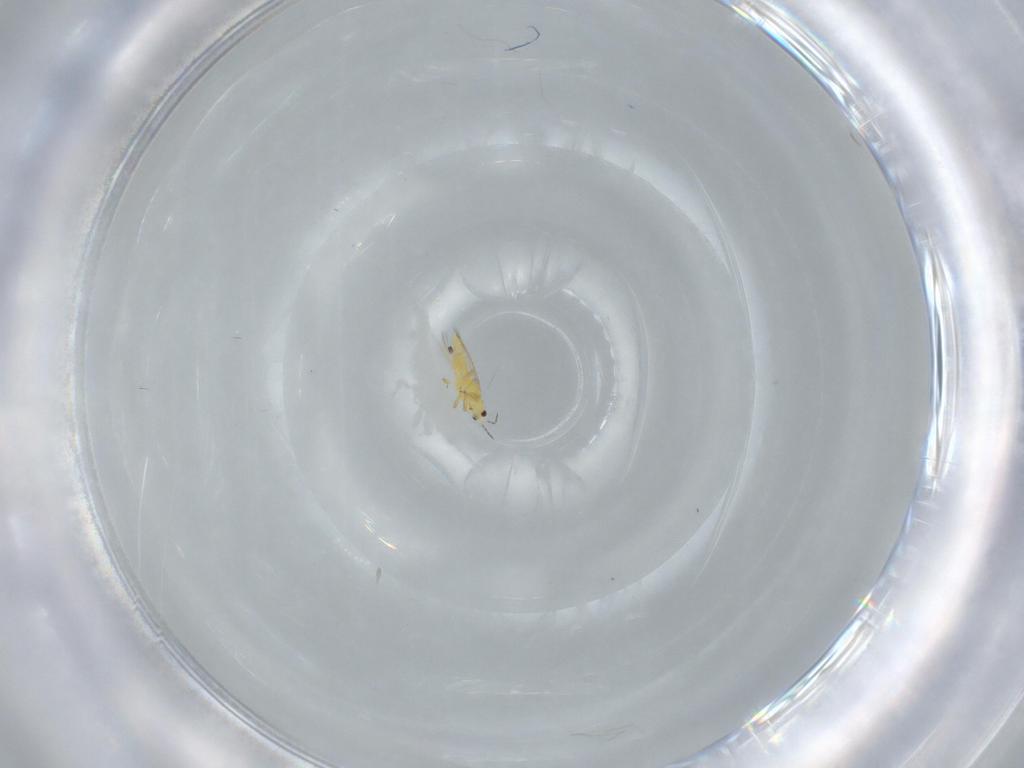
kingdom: Animalia
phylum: Arthropoda
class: Insecta
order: Thysanoptera
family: Thripidae
